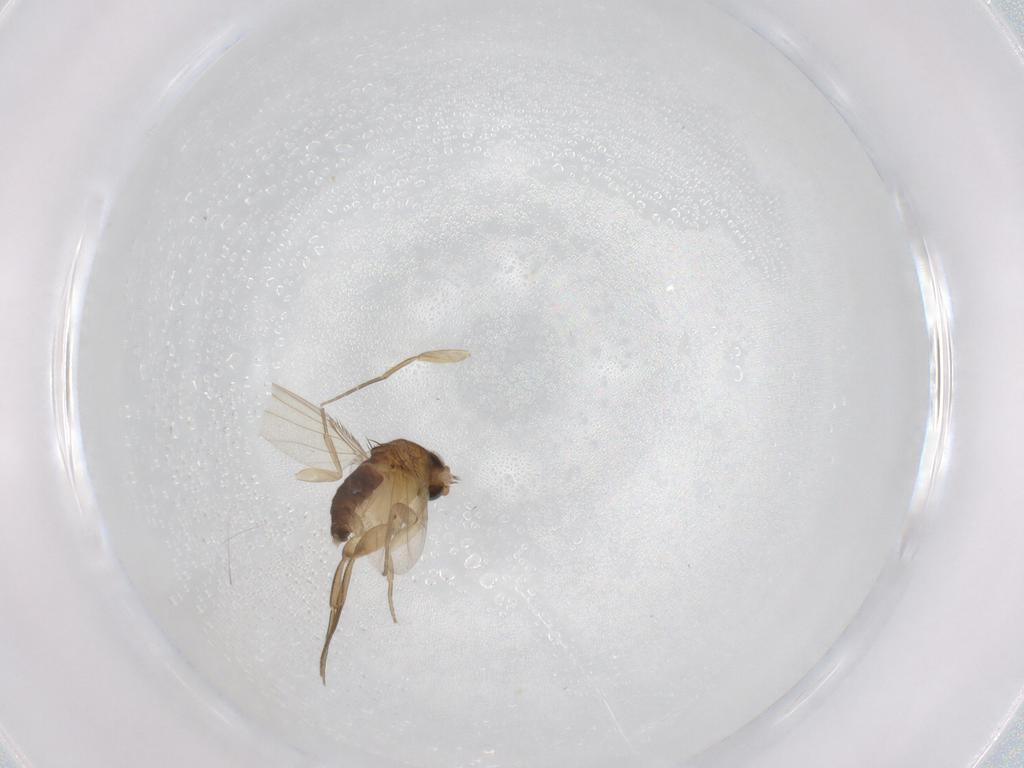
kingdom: Animalia
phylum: Arthropoda
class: Insecta
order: Diptera
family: Phoridae
